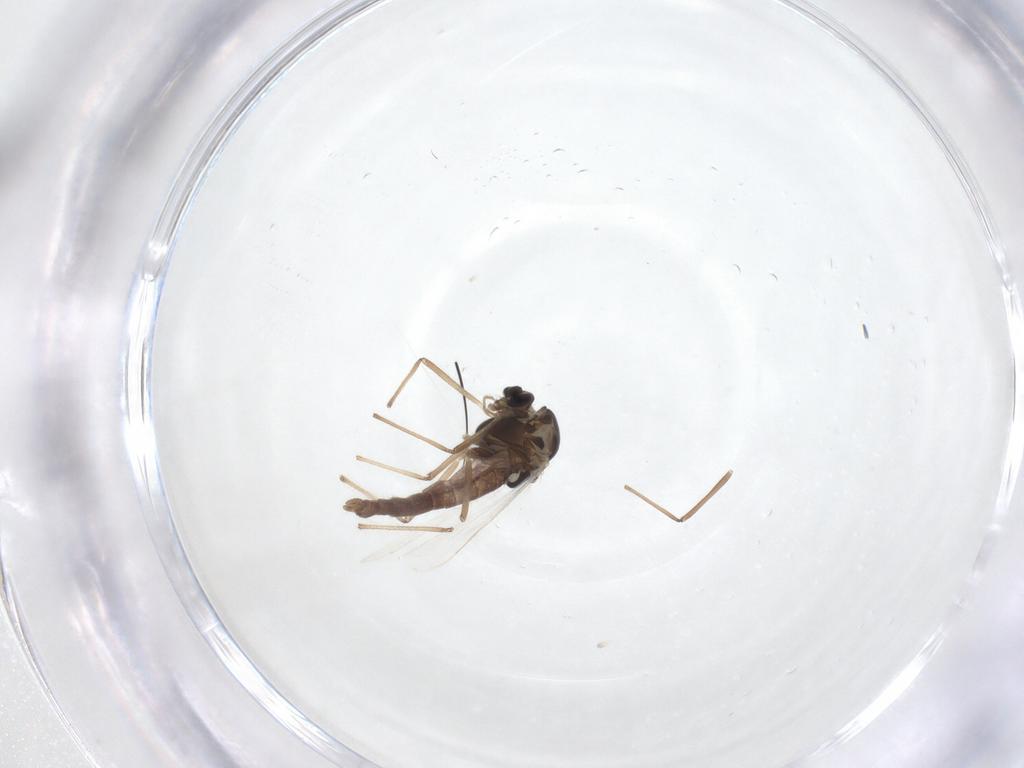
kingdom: Animalia
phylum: Arthropoda
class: Insecta
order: Diptera
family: Chironomidae
